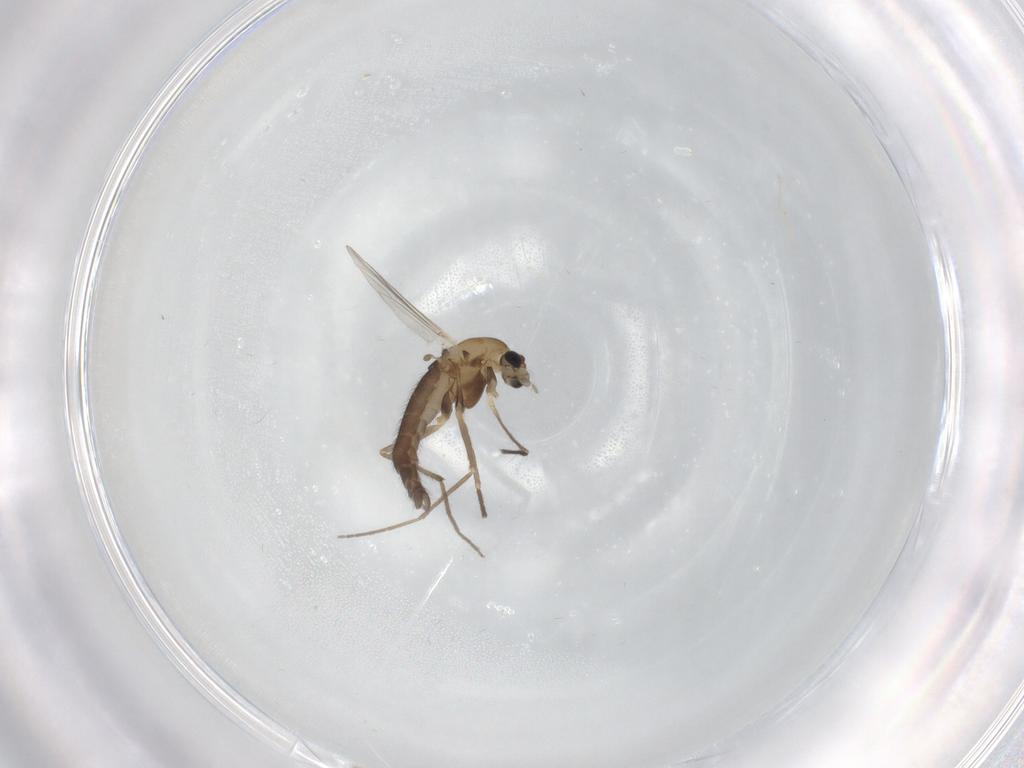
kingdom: Animalia
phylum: Arthropoda
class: Insecta
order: Diptera
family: Chironomidae
